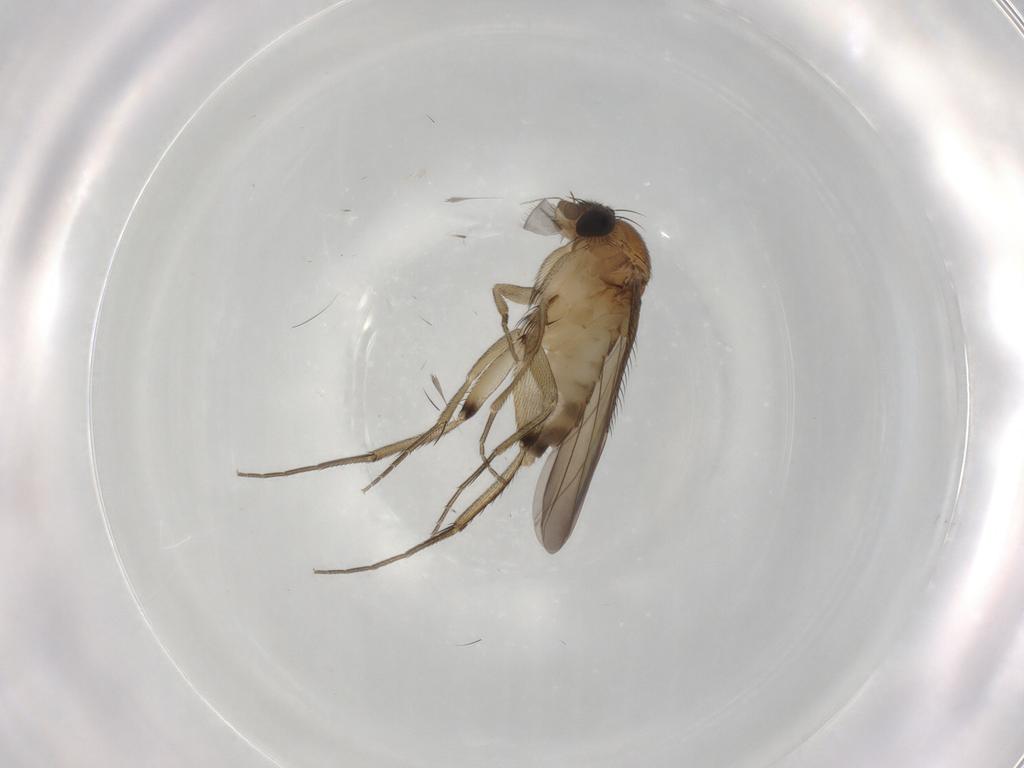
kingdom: Animalia
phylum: Arthropoda
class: Insecta
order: Diptera
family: Phoridae
